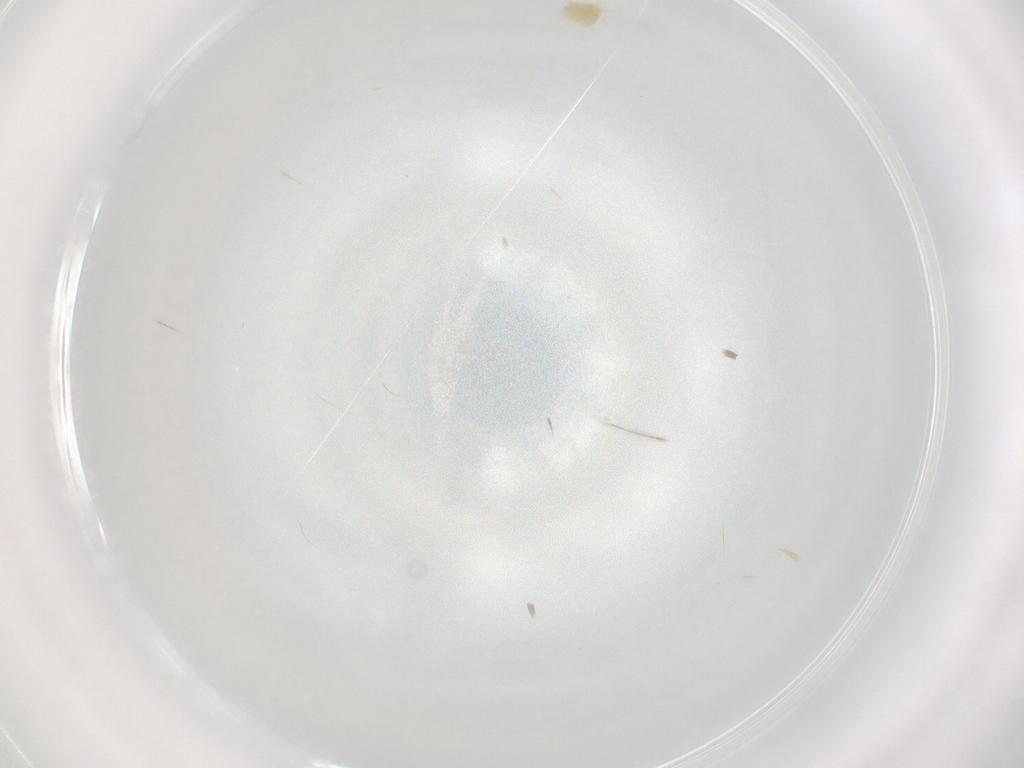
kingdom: Animalia
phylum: Arthropoda
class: Arachnida
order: Trombidiformes
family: Tetranychidae
